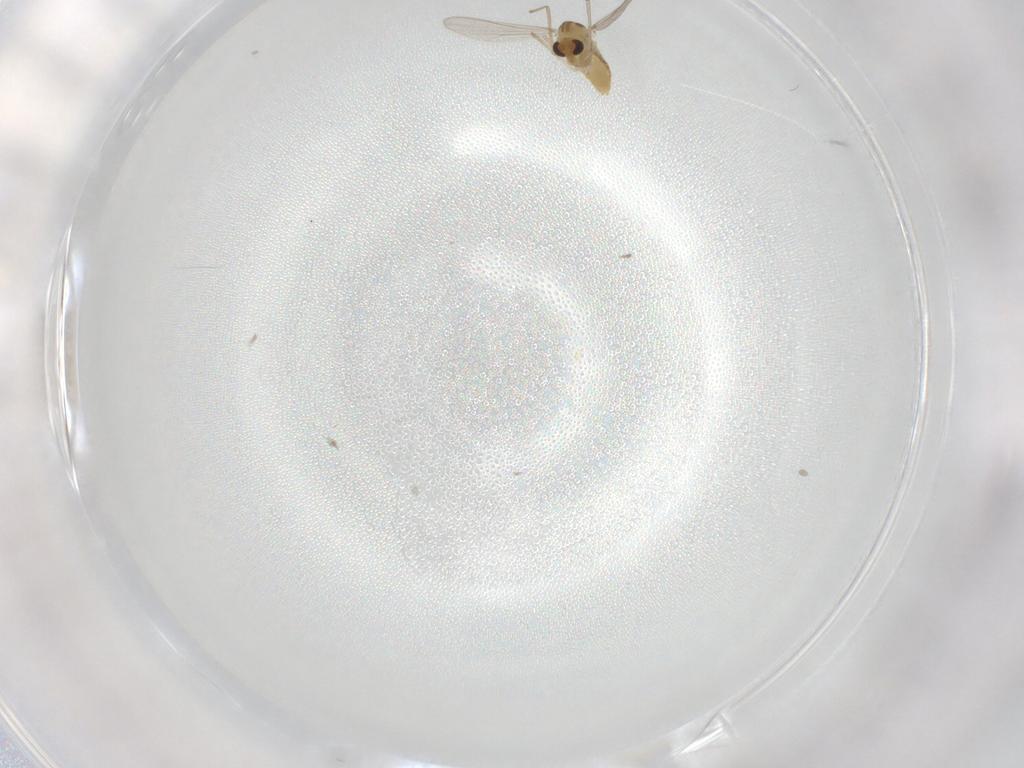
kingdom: Animalia
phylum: Arthropoda
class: Insecta
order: Diptera
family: Chironomidae
